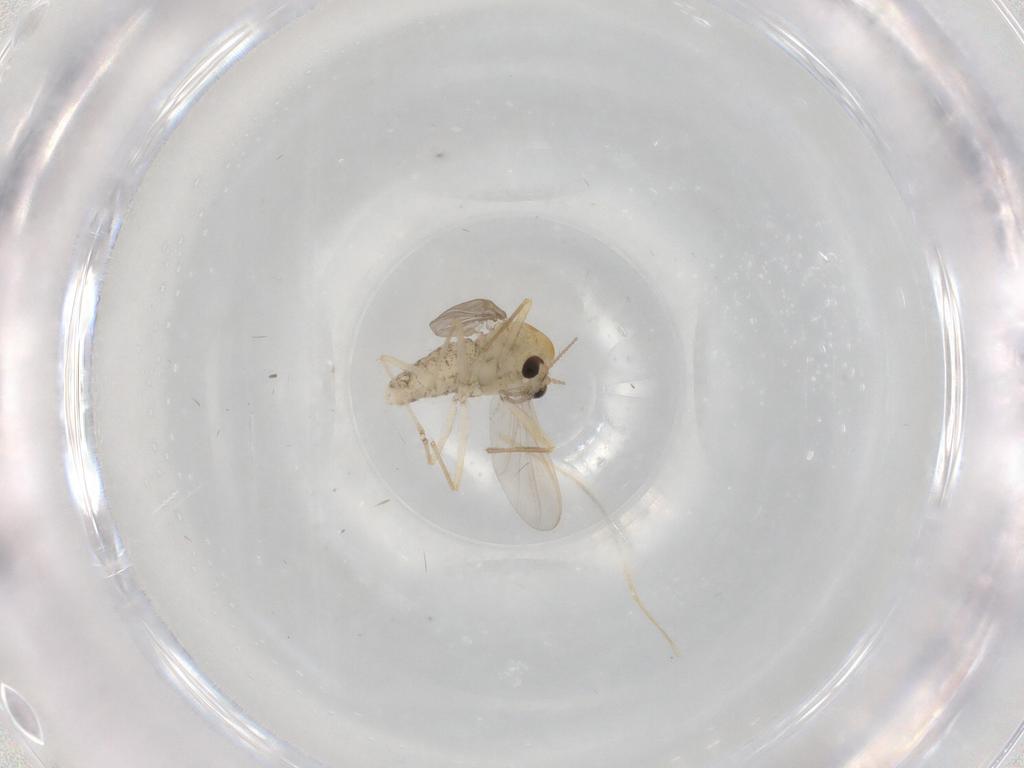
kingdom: Animalia
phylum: Arthropoda
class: Insecta
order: Diptera
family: Chironomidae
